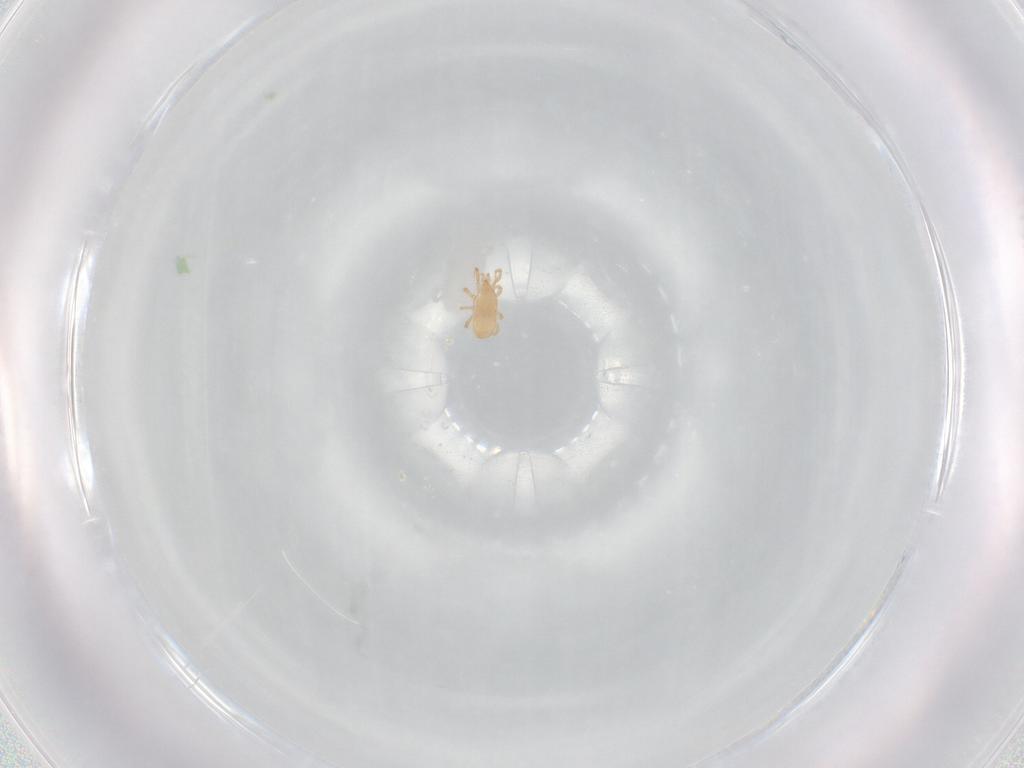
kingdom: Animalia
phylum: Arthropoda
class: Arachnida
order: Mesostigmata
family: Ascidae
